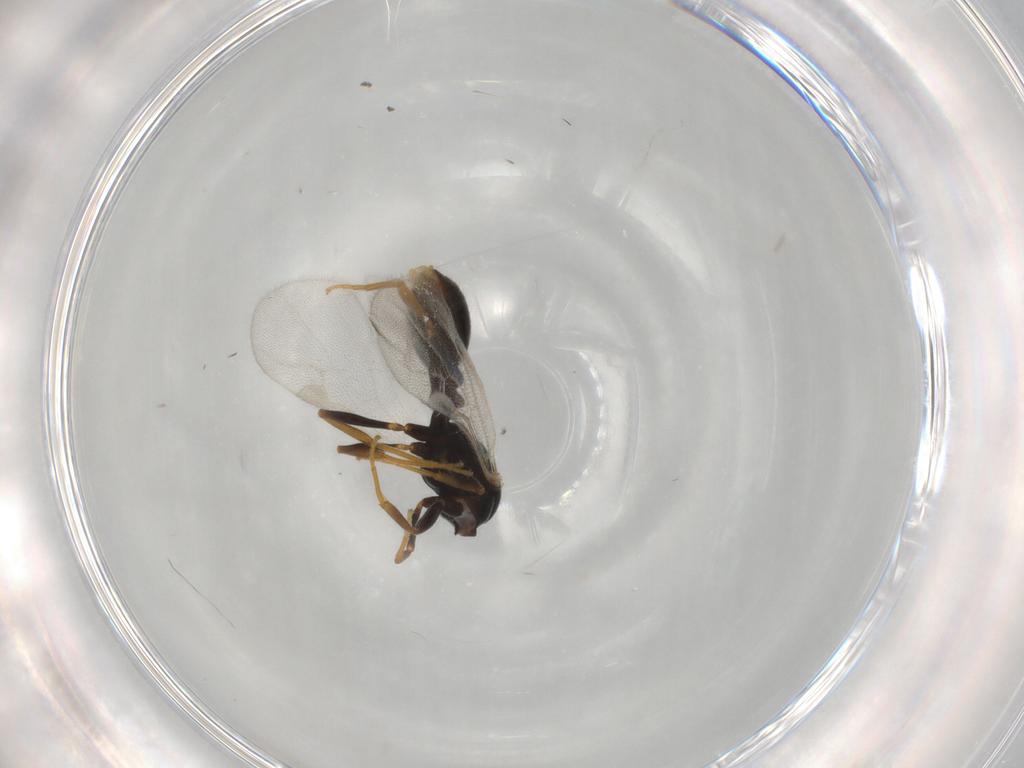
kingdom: Animalia
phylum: Arthropoda
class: Insecta
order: Hymenoptera
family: Formicidae
